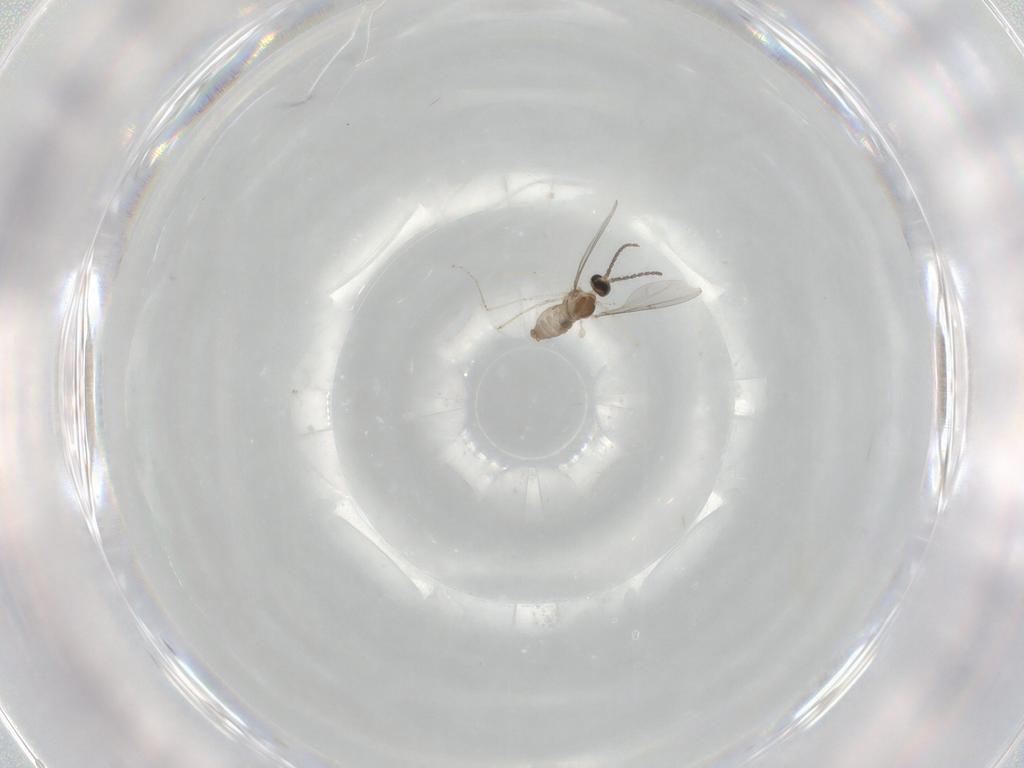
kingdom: Animalia
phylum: Arthropoda
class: Insecta
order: Diptera
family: Cecidomyiidae
